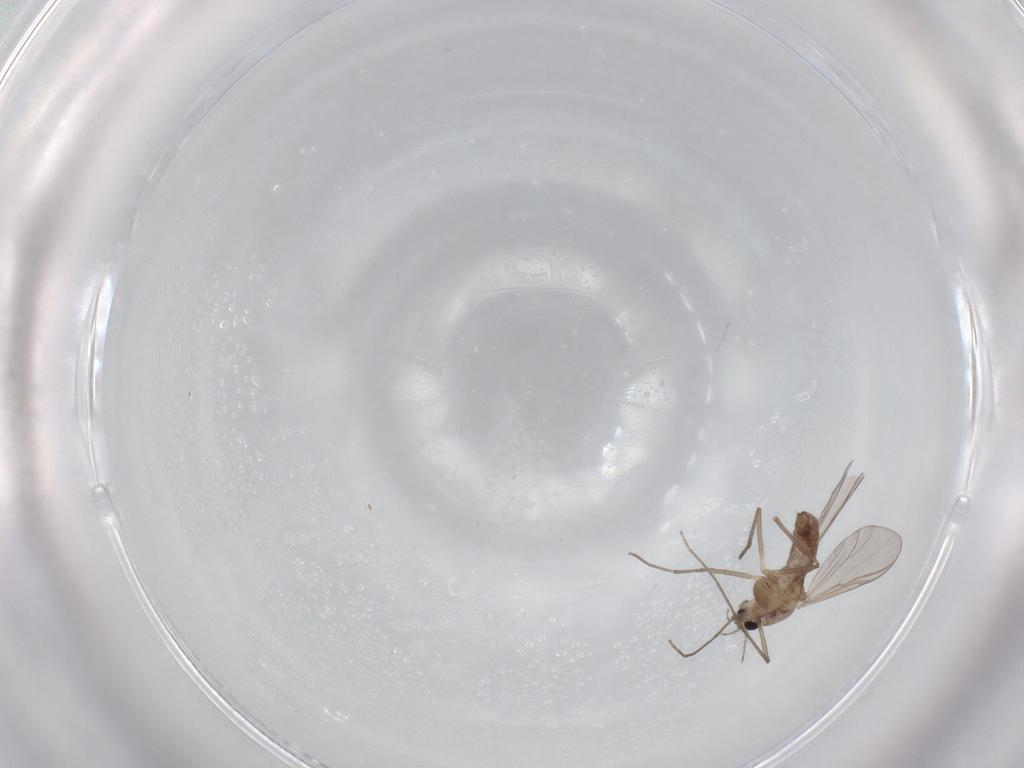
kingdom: Animalia
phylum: Arthropoda
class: Insecta
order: Diptera
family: Chironomidae
